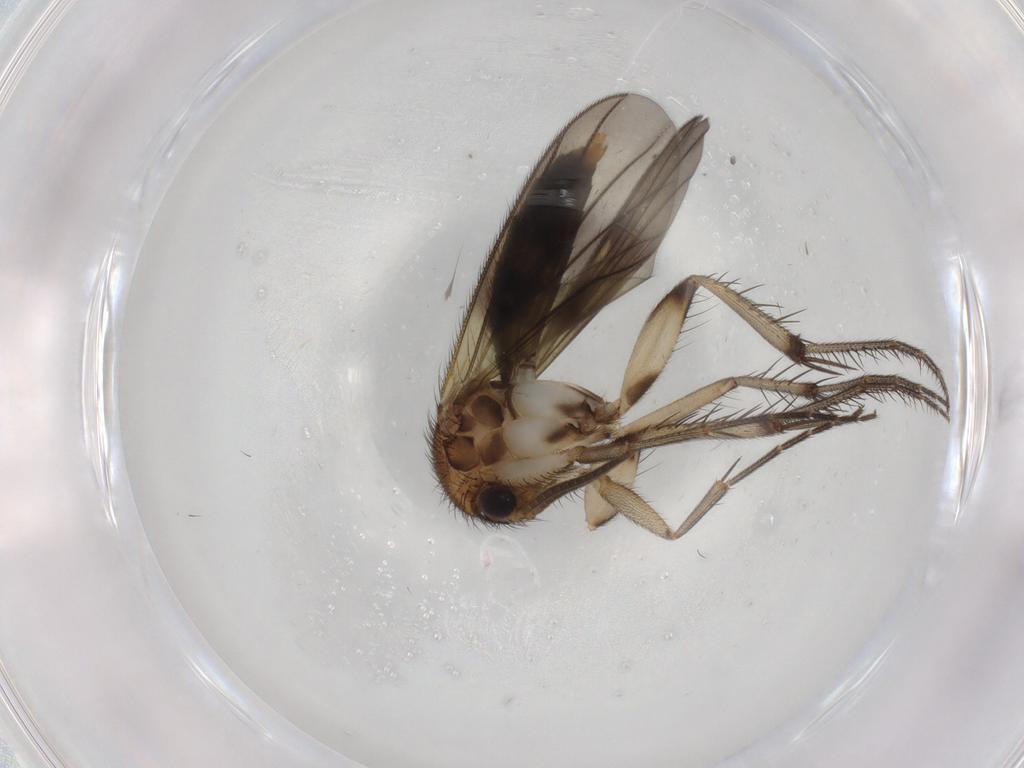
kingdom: Animalia
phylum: Arthropoda
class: Insecta
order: Diptera
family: Mycetophilidae
